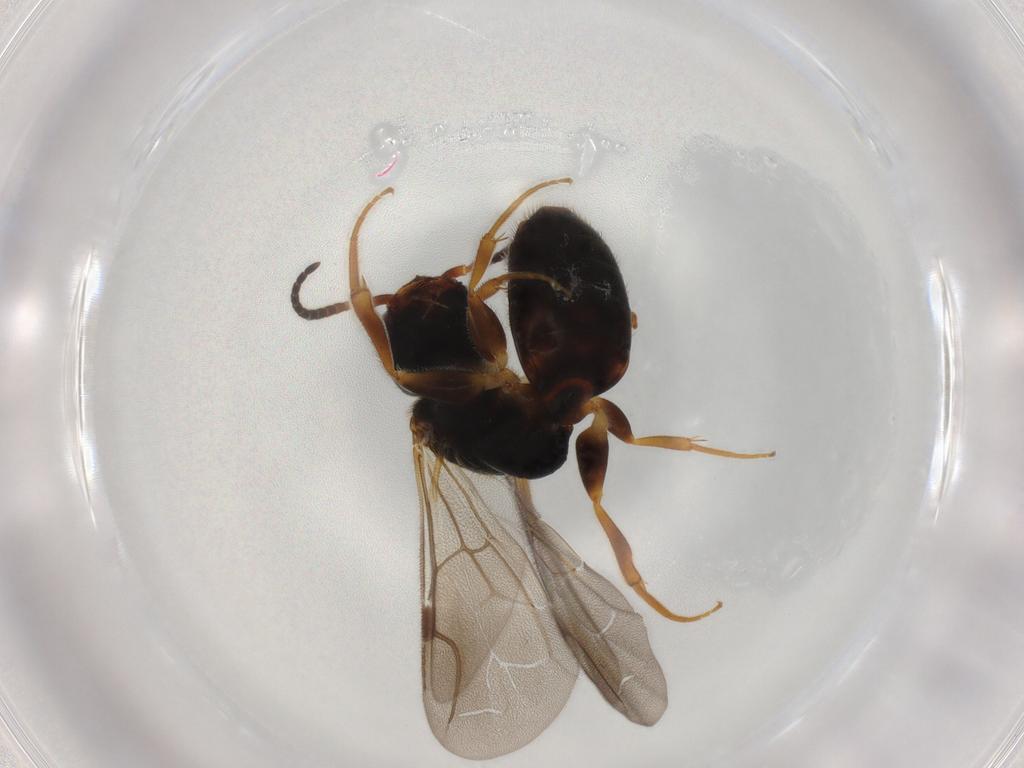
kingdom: Animalia
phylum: Arthropoda
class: Insecta
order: Hymenoptera
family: Bethylidae
